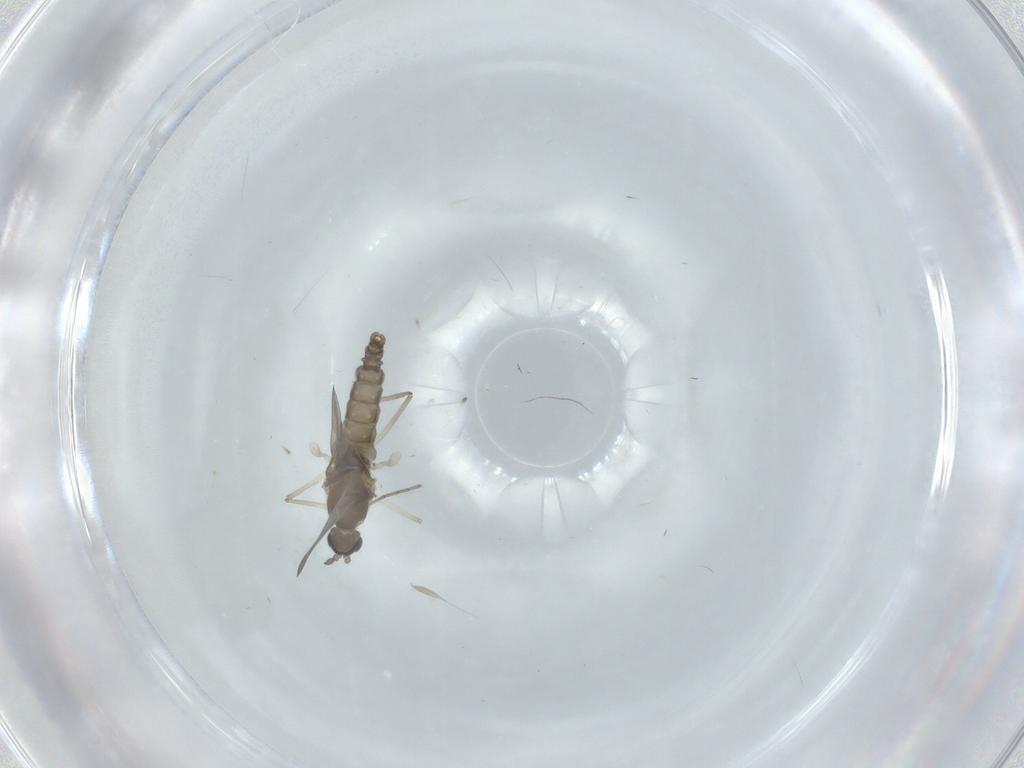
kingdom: Animalia
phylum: Arthropoda
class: Insecta
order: Diptera
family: Cecidomyiidae
